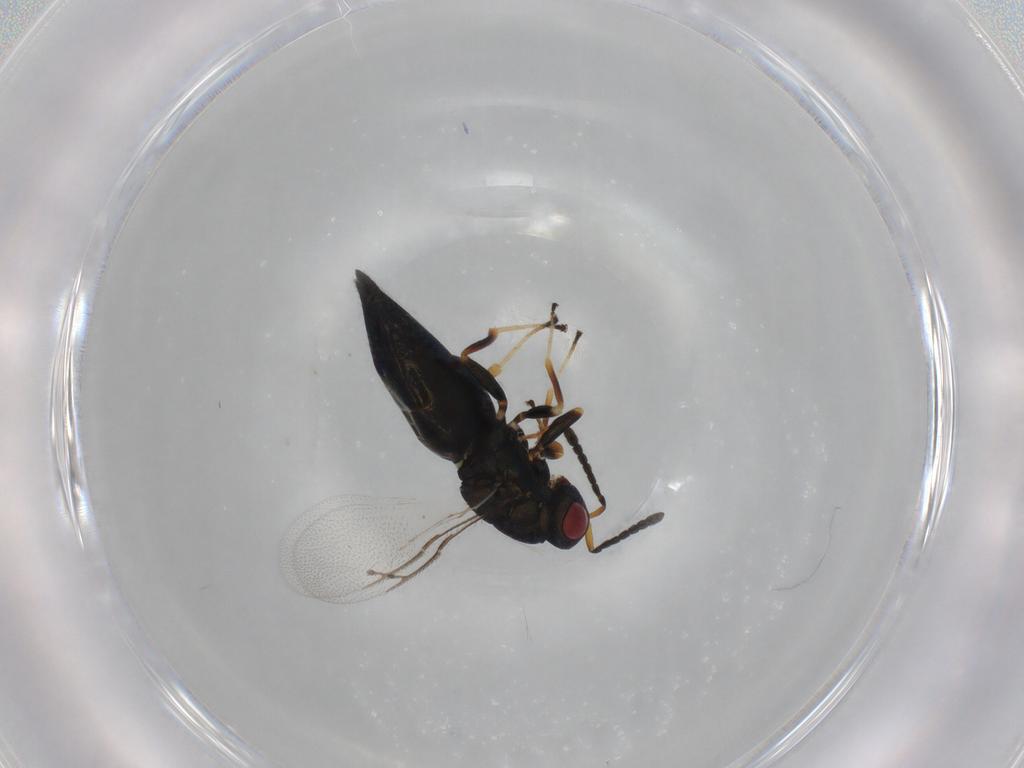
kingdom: Animalia
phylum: Arthropoda
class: Insecta
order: Diptera
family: Cecidomyiidae
